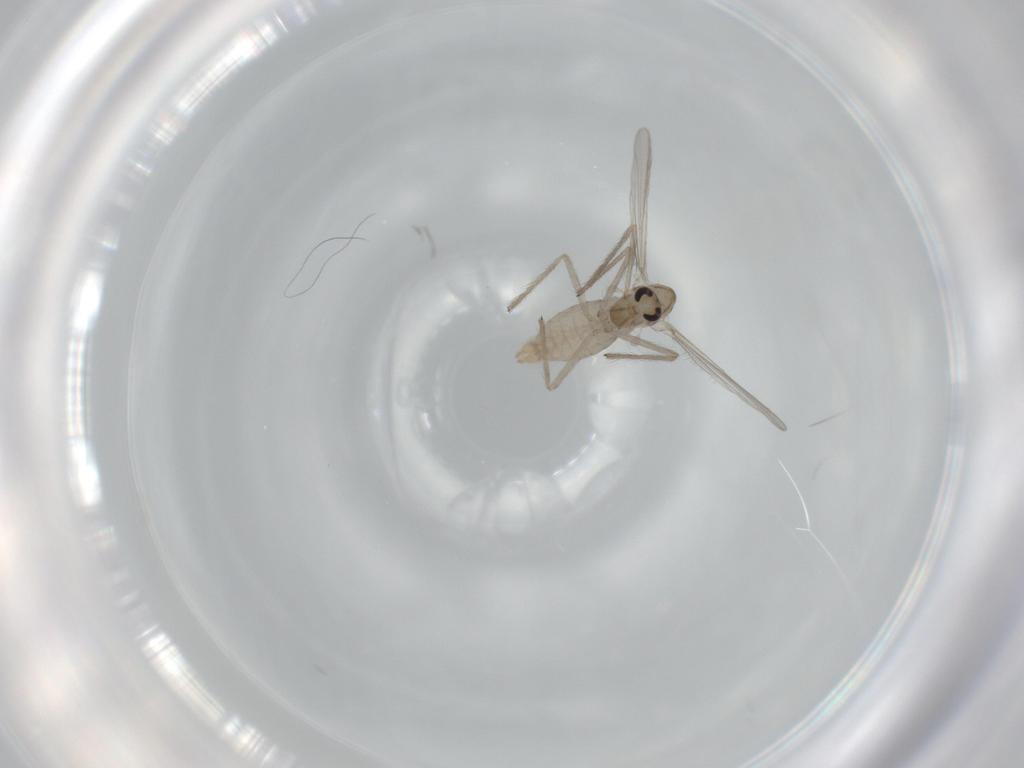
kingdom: Animalia
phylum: Arthropoda
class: Insecta
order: Diptera
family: Chironomidae
